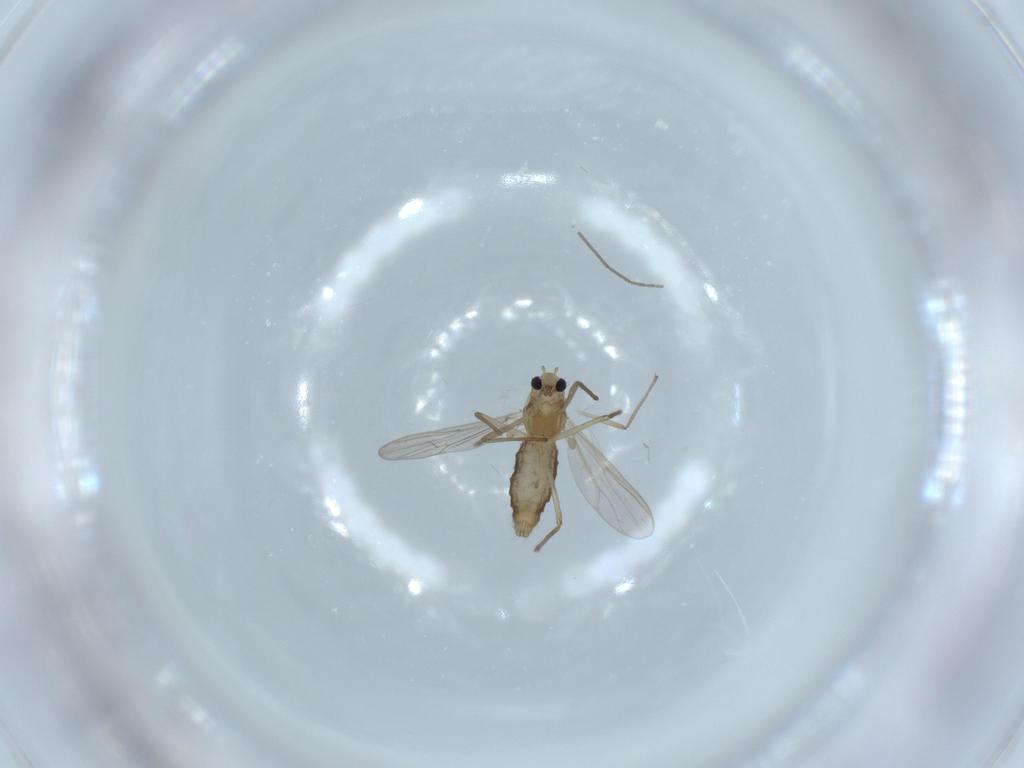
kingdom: Animalia
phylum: Arthropoda
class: Insecta
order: Diptera
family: Chironomidae
